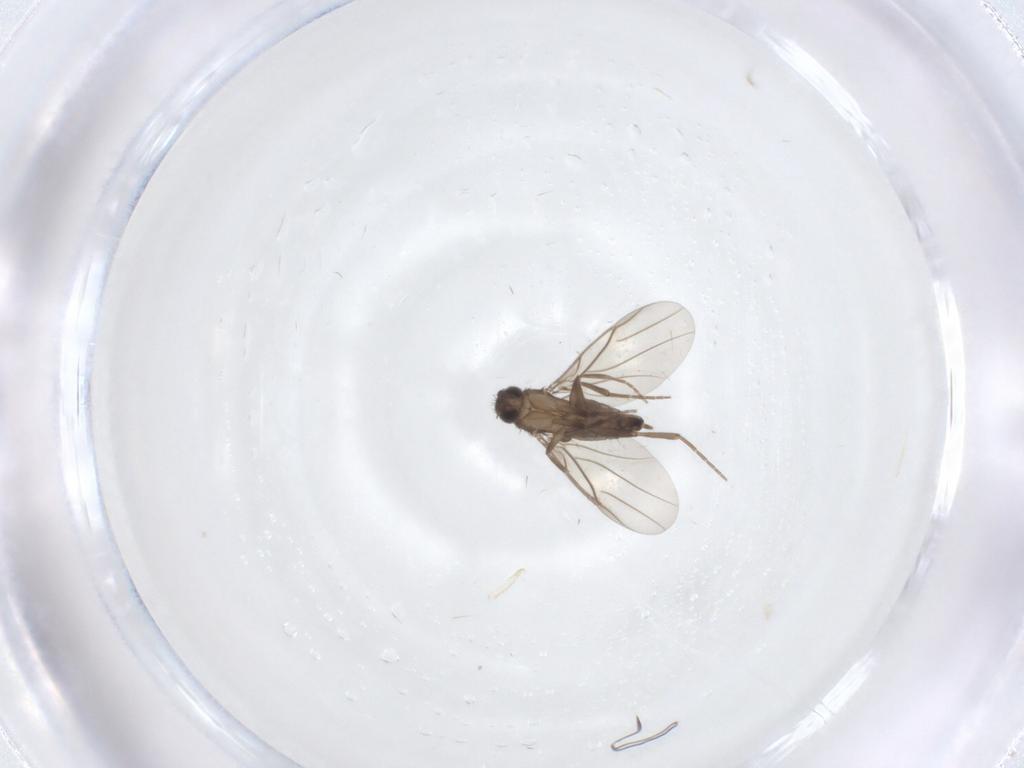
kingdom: Animalia
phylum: Arthropoda
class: Insecta
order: Diptera
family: Phoridae
